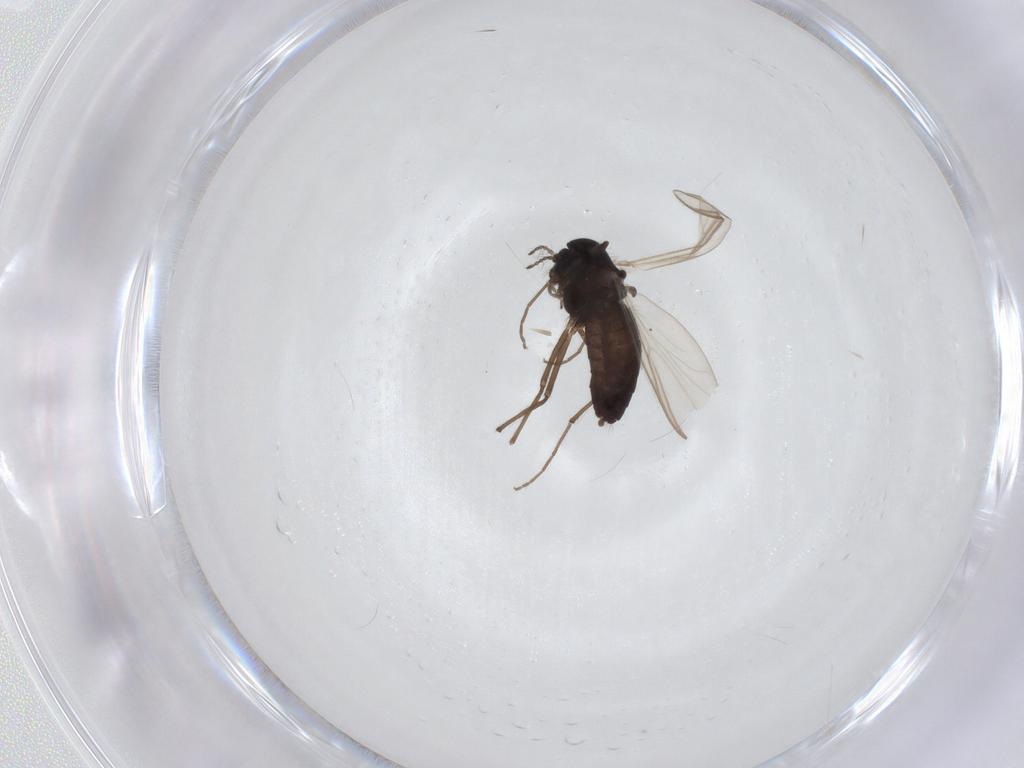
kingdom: Animalia
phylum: Arthropoda
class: Insecta
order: Diptera
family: Chironomidae
